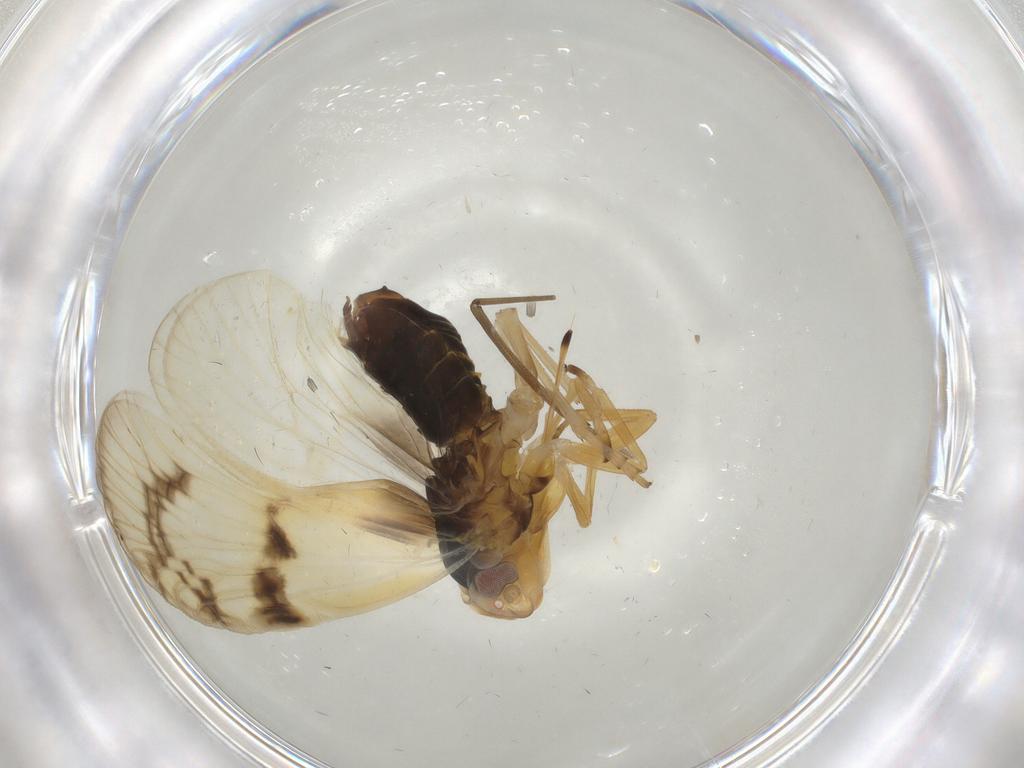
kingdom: Animalia
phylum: Arthropoda
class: Insecta
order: Hemiptera
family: Cixiidae
